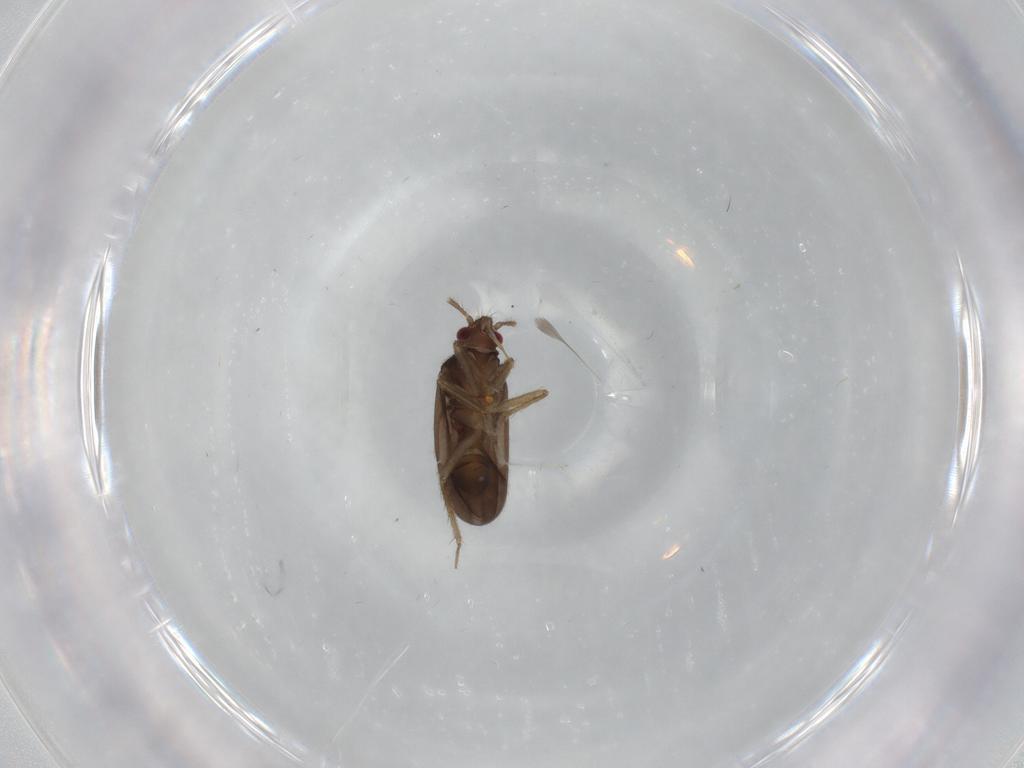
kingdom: Animalia
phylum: Arthropoda
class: Insecta
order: Hemiptera
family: Ceratocombidae
